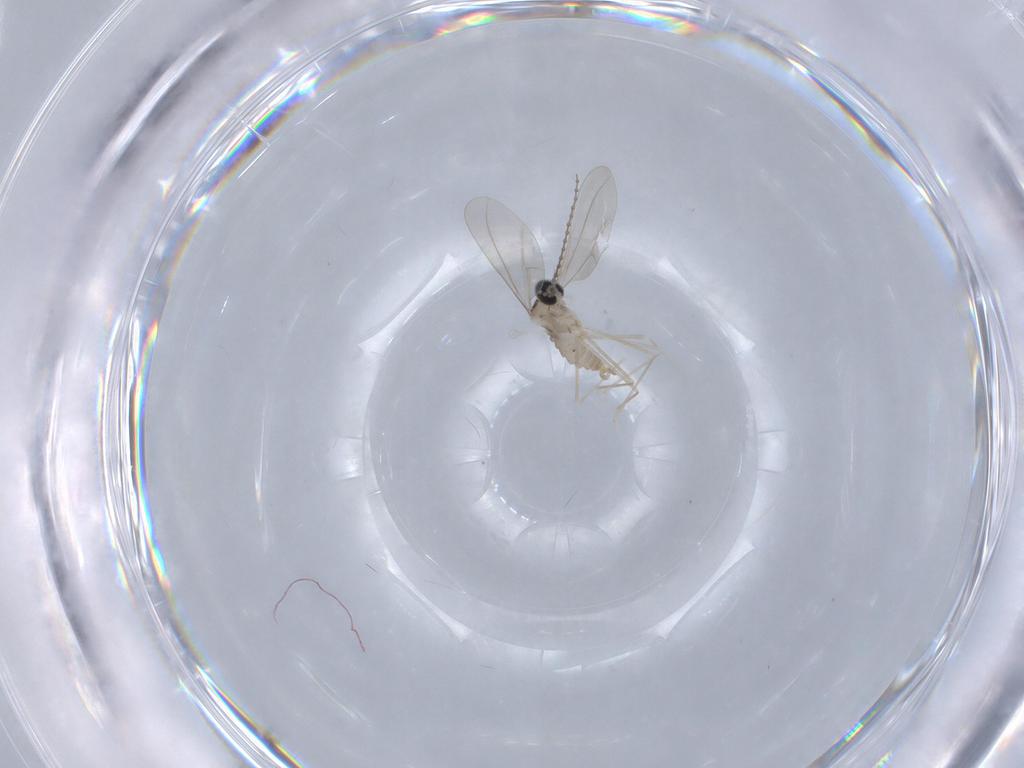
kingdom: Animalia
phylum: Arthropoda
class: Insecta
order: Diptera
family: Cecidomyiidae
